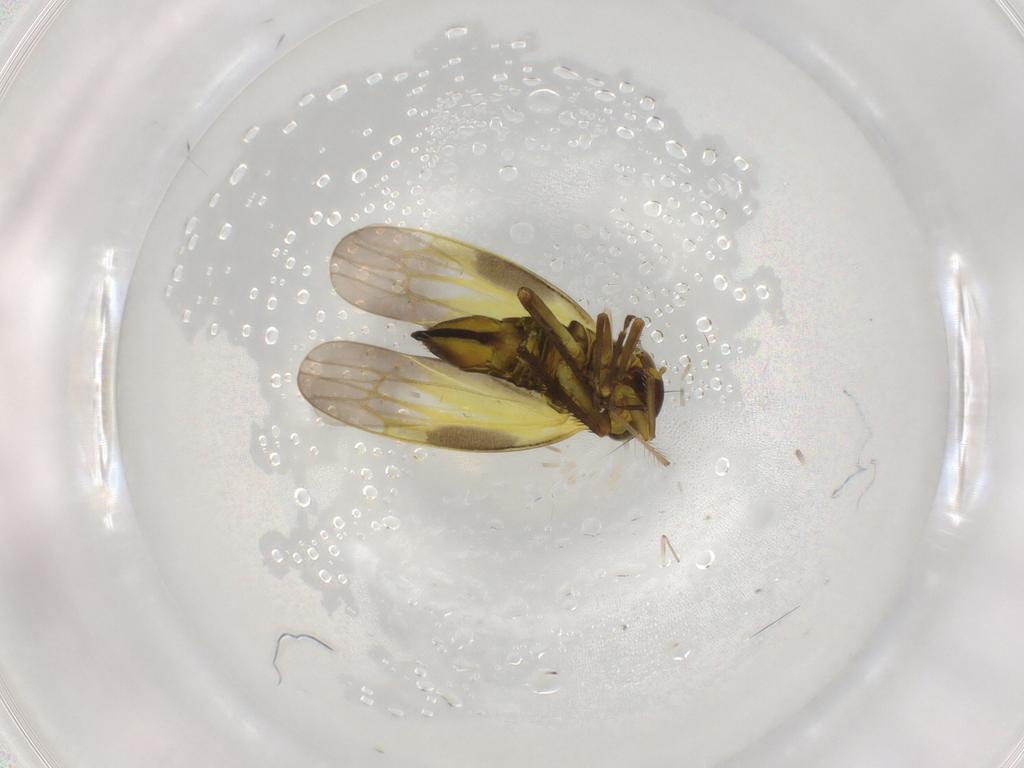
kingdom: Animalia
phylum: Arthropoda
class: Insecta
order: Hemiptera
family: Cicadellidae
